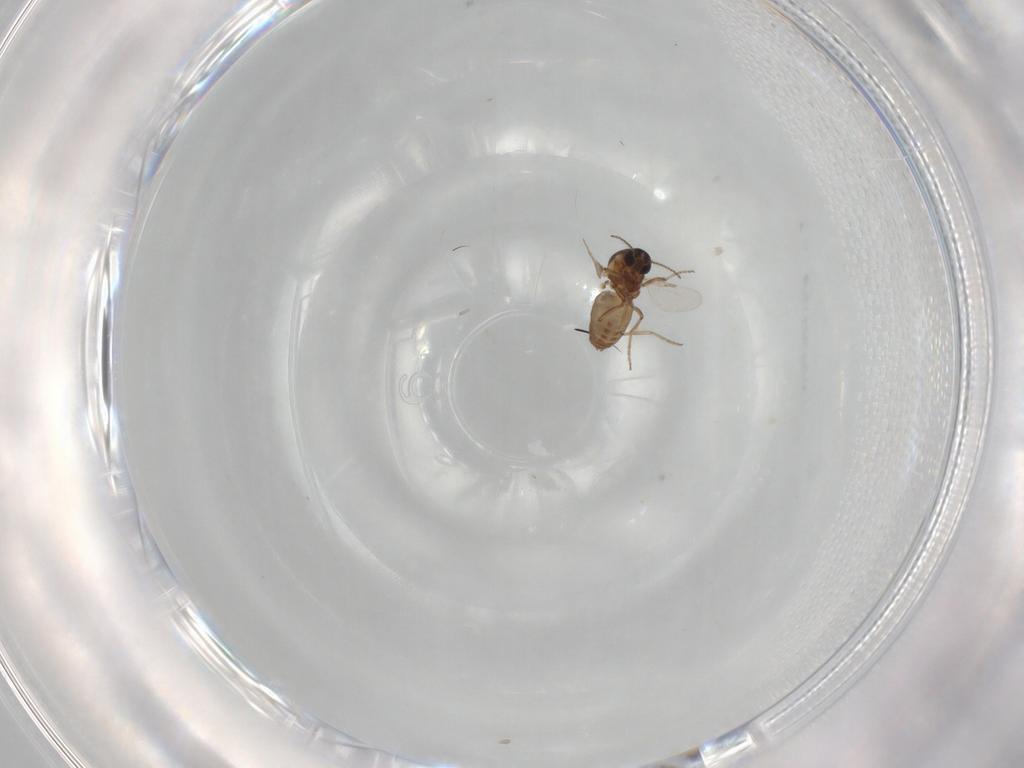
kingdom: Animalia
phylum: Arthropoda
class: Insecta
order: Diptera
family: Ceratopogonidae
